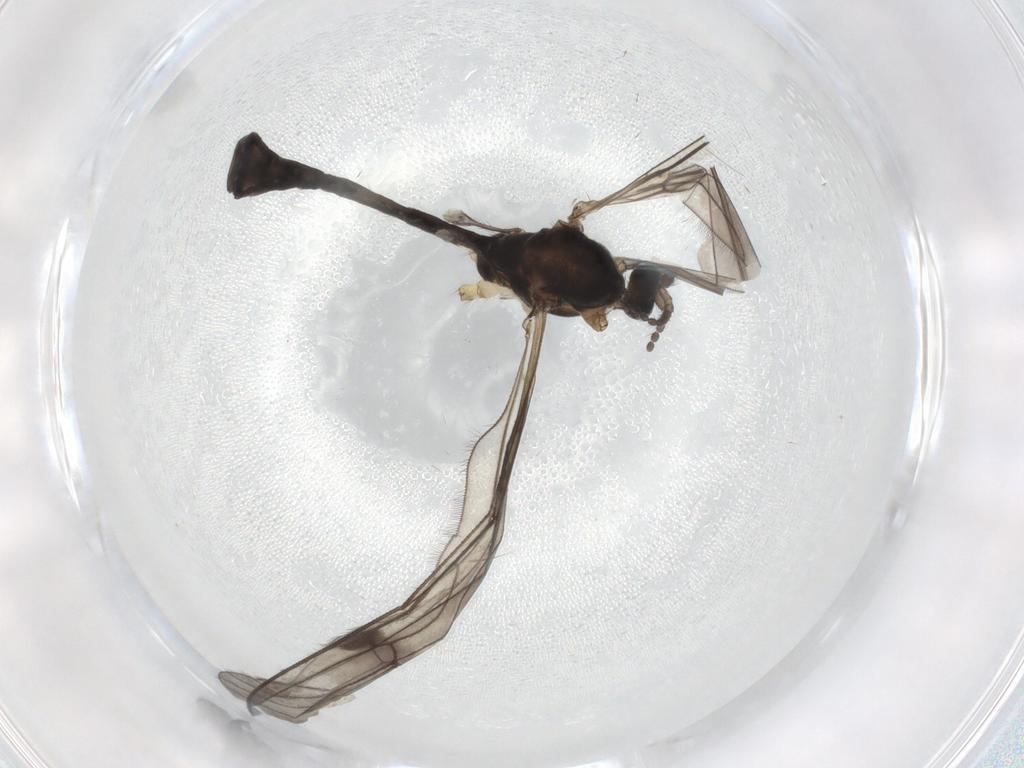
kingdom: Animalia
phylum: Arthropoda
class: Insecta
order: Diptera
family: Limoniidae
